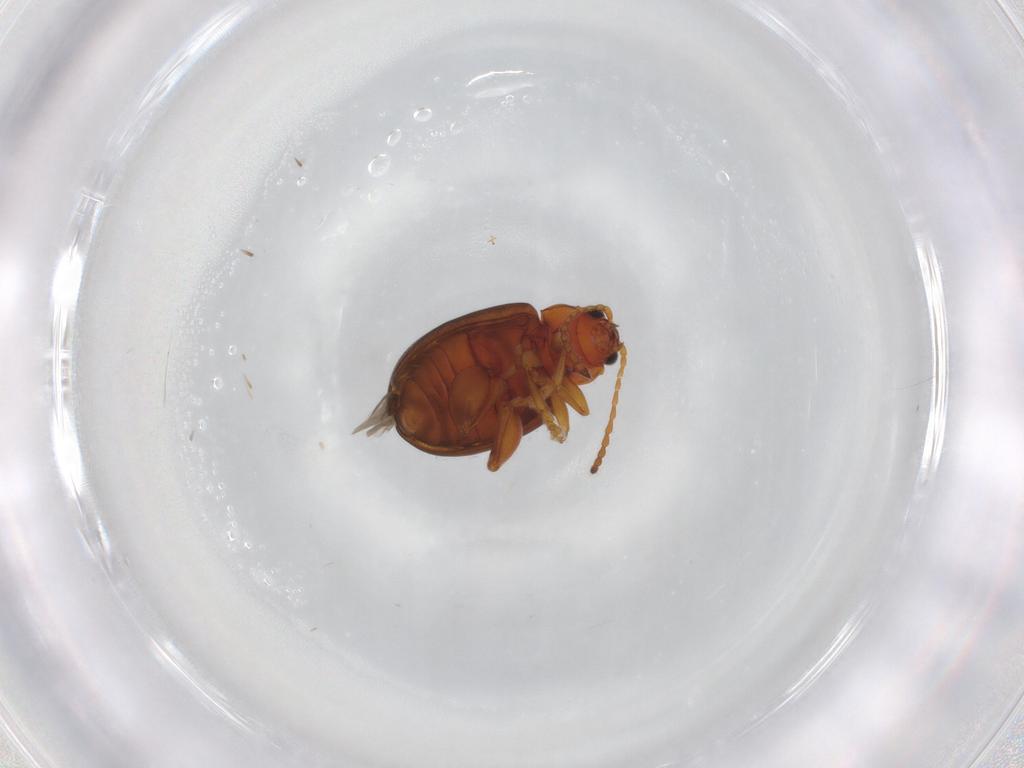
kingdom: Animalia
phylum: Arthropoda
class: Insecta
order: Coleoptera
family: Chrysomelidae
